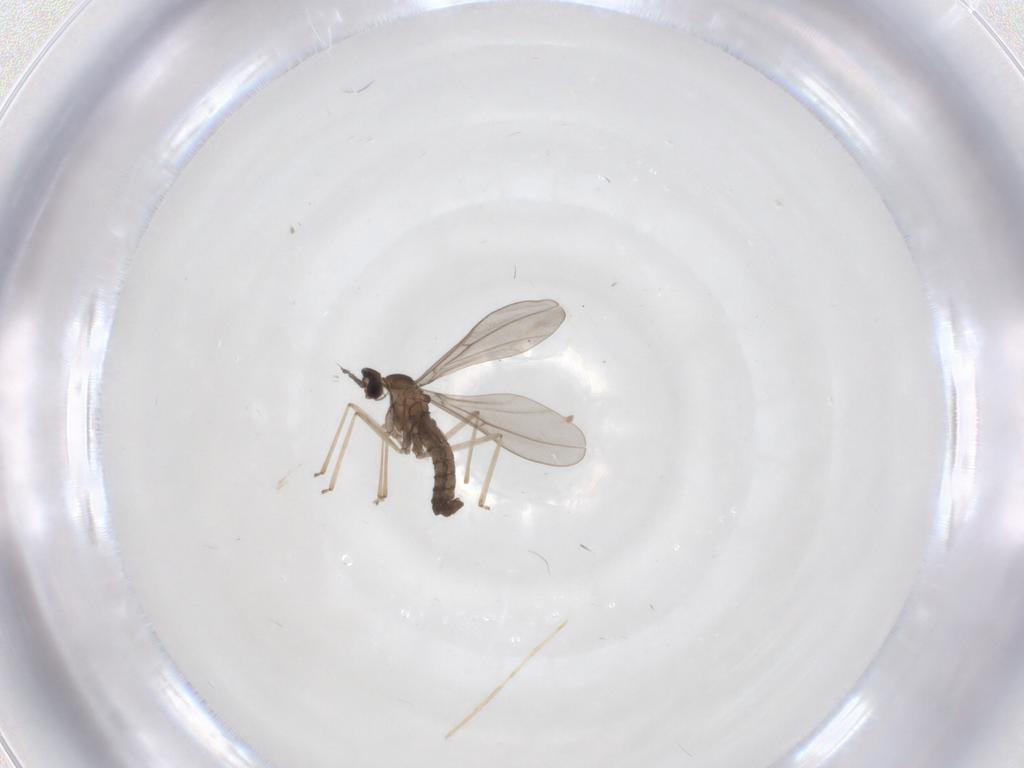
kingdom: Animalia
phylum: Arthropoda
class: Insecta
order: Diptera
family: Cecidomyiidae
